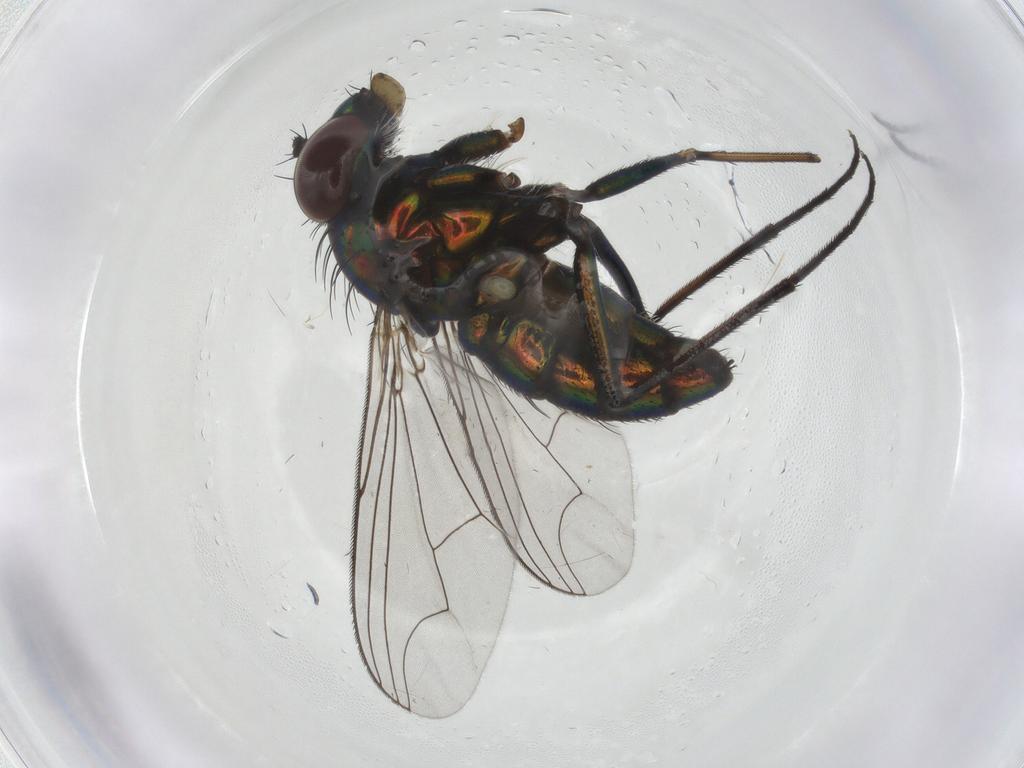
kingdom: Animalia
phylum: Arthropoda
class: Insecta
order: Diptera
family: Dolichopodidae
